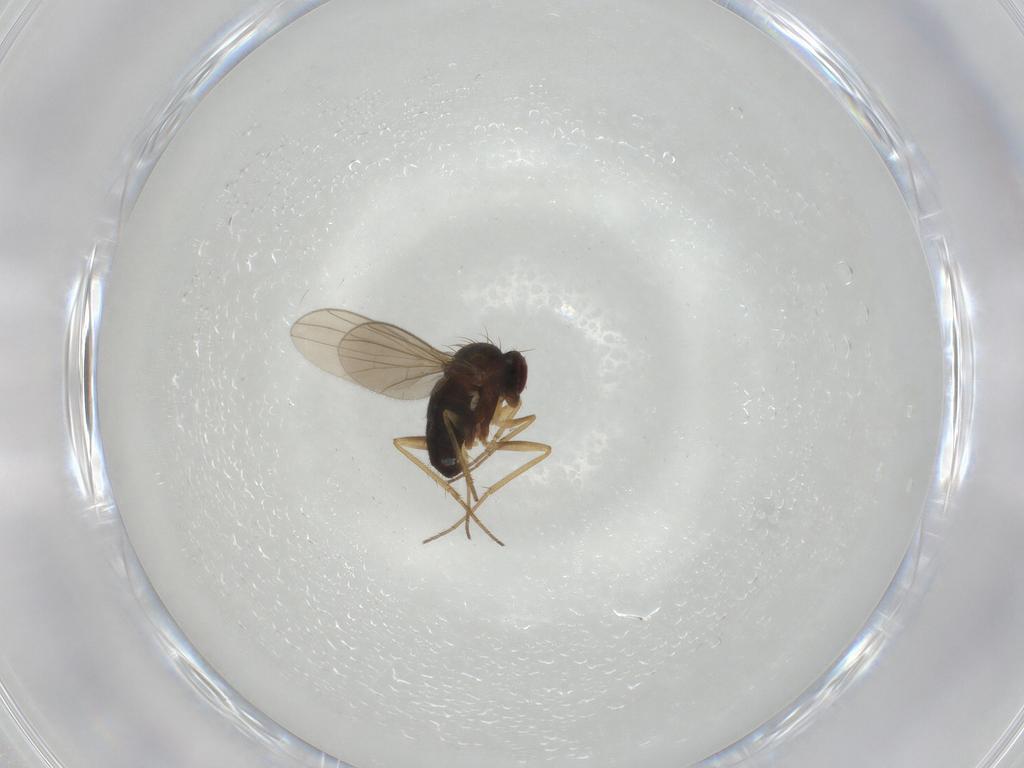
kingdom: Animalia
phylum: Arthropoda
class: Insecta
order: Diptera
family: Dolichopodidae
